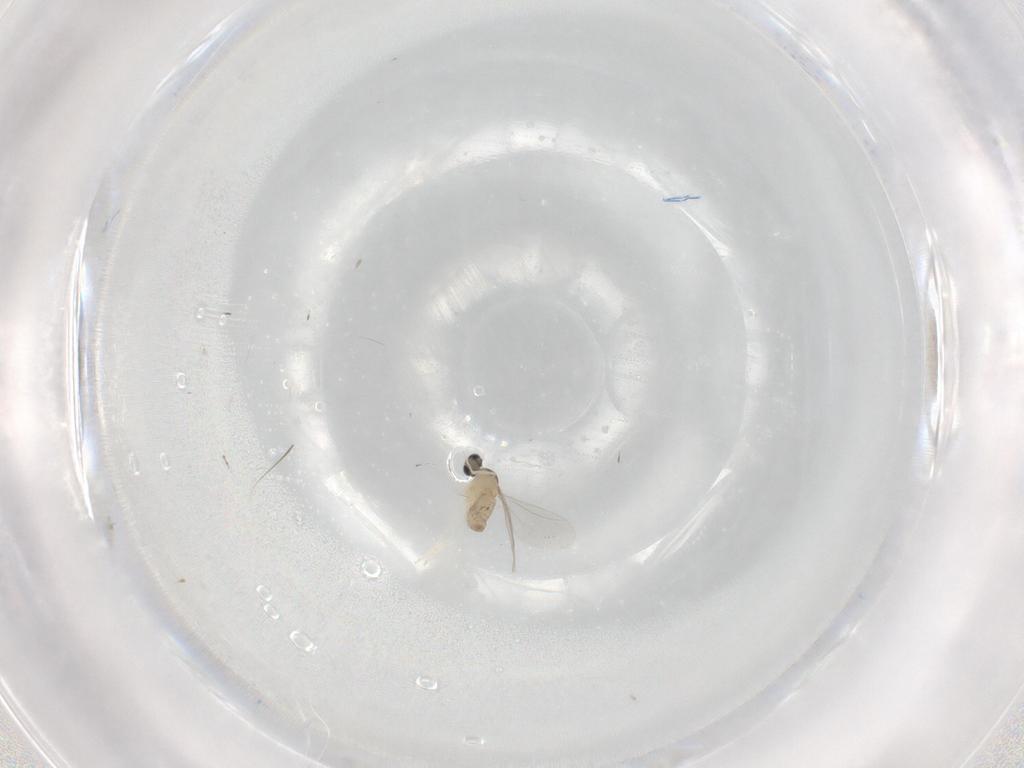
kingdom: Animalia
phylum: Arthropoda
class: Insecta
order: Diptera
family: Cecidomyiidae
